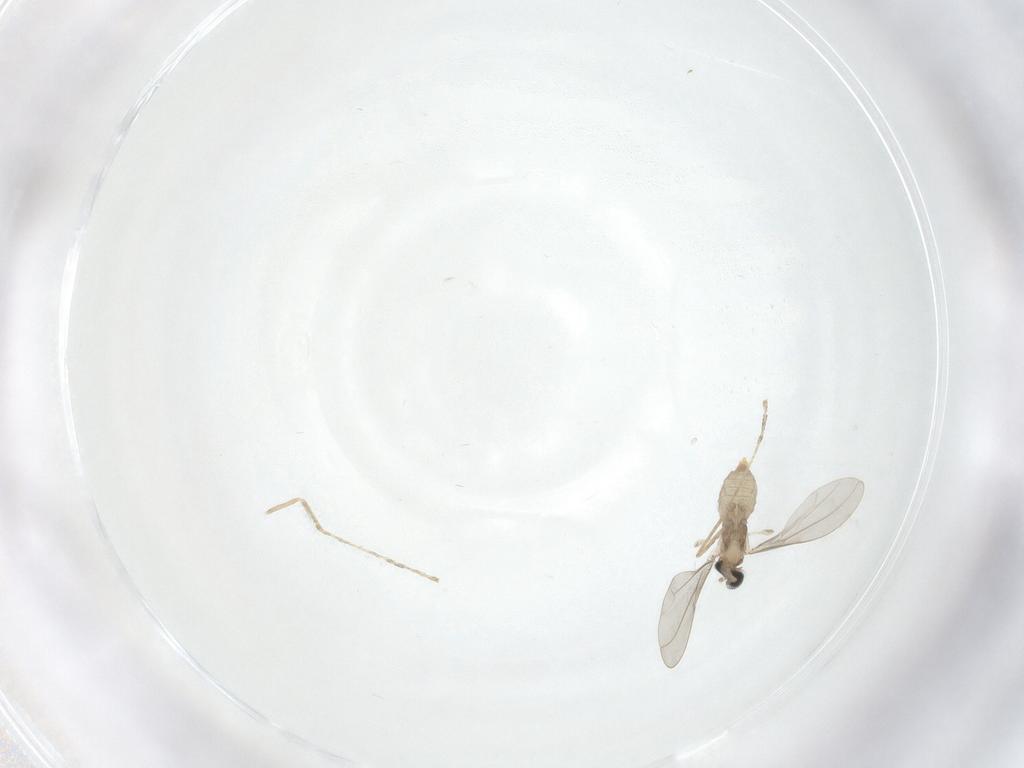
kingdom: Animalia
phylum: Arthropoda
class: Insecta
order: Diptera
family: Cecidomyiidae
